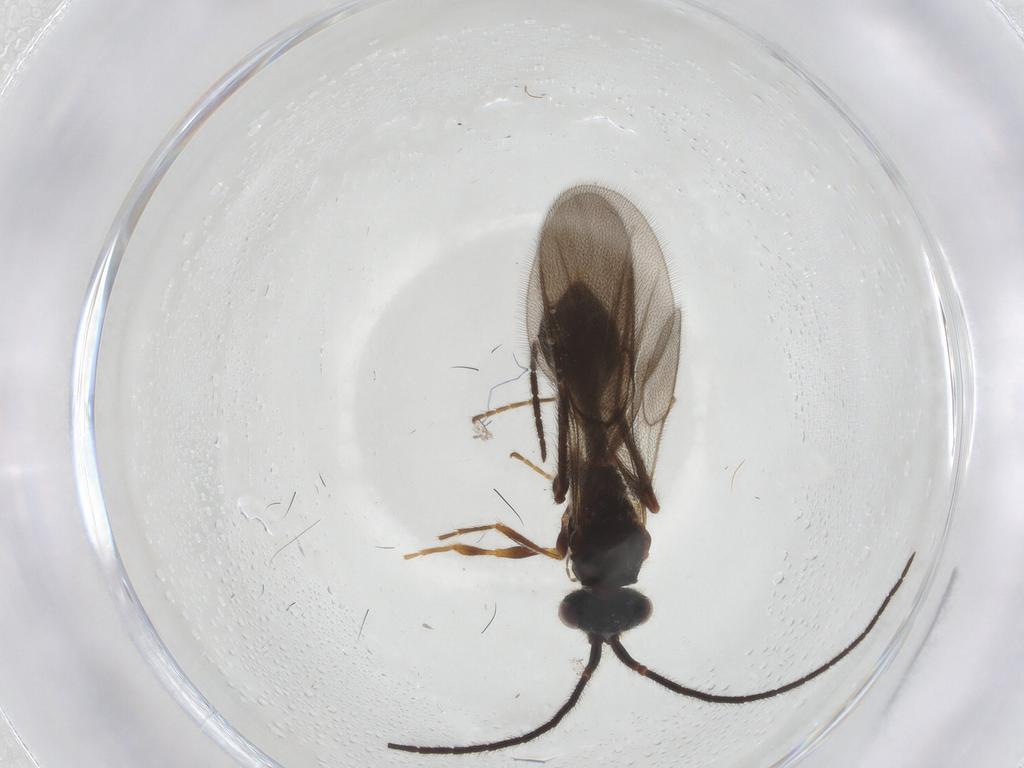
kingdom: Animalia
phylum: Arthropoda
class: Insecta
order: Hymenoptera
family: Diapriidae
